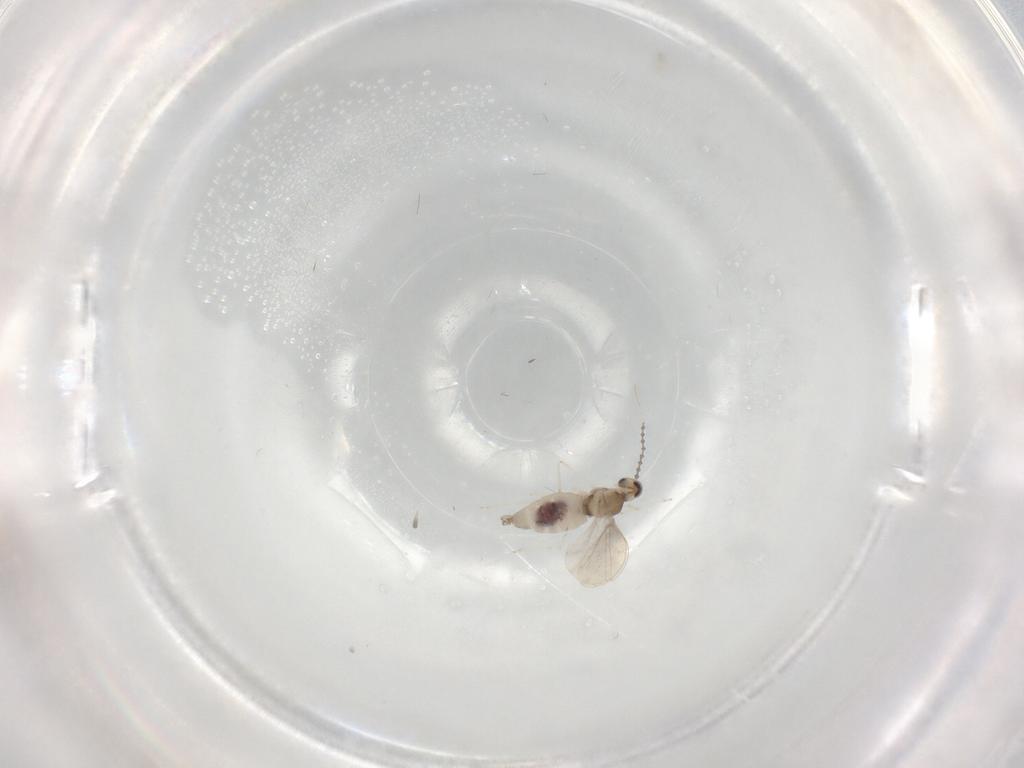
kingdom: Animalia
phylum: Arthropoda
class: Insecta
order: Diptera
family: Cecidomyiidae
